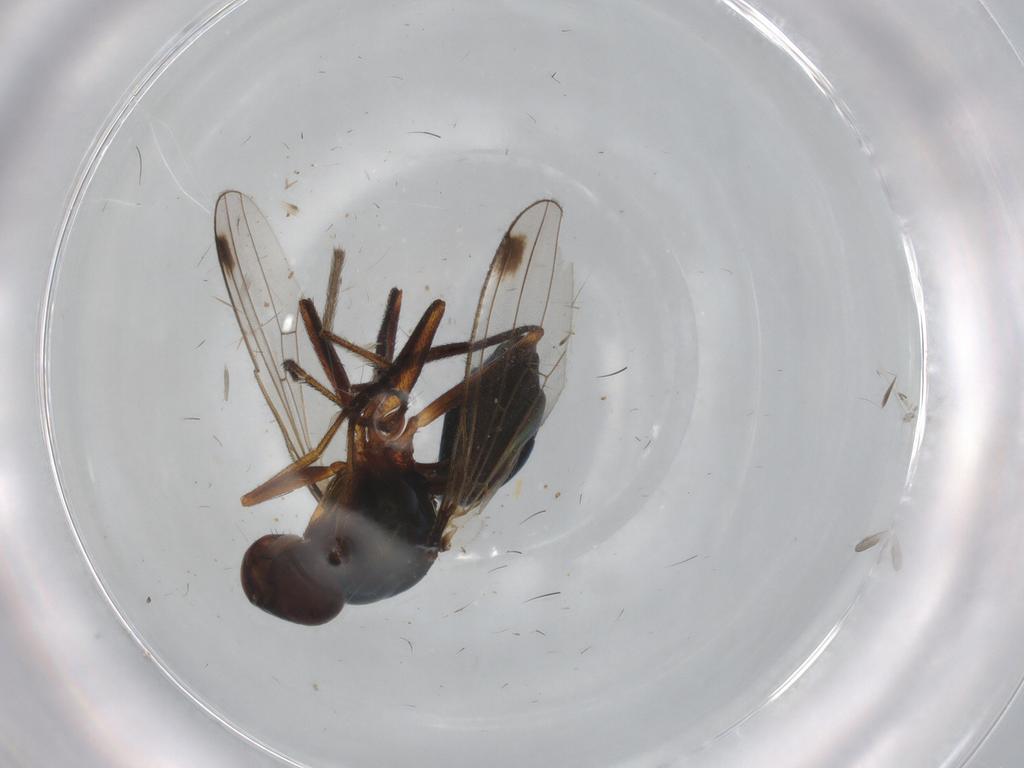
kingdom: Animalia
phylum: Arthropoda
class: Insecta
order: Diptera
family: Sepsidae
